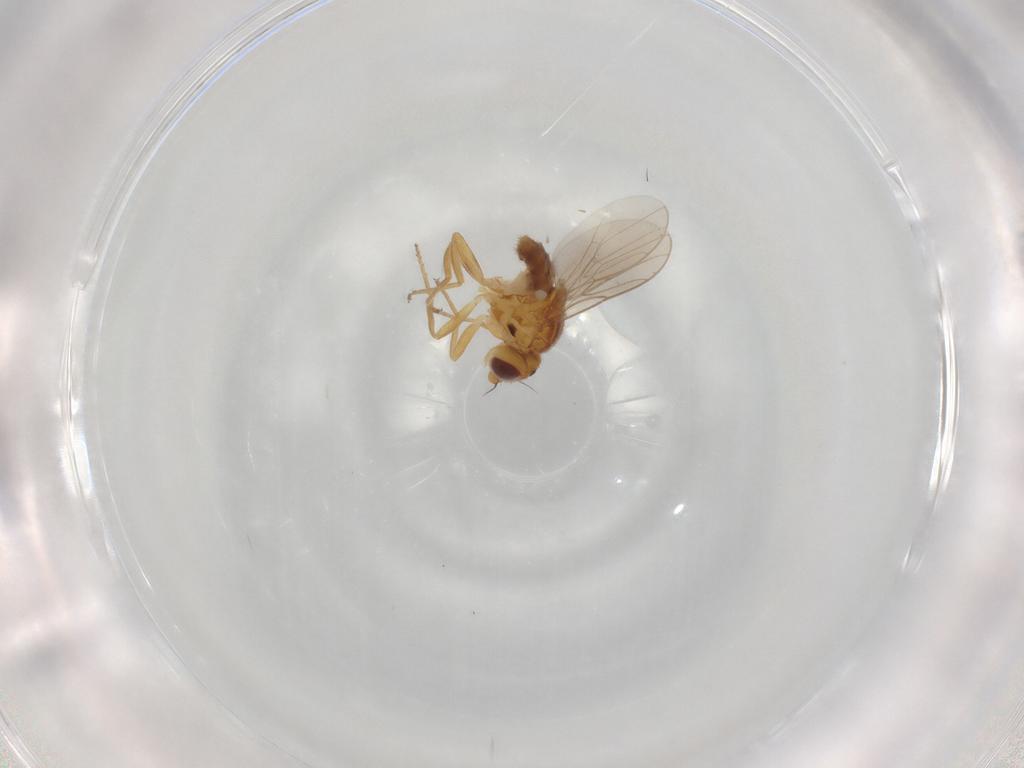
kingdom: Animalia
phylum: Arthropoda
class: Insecta
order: Diptera
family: Chloropidae
